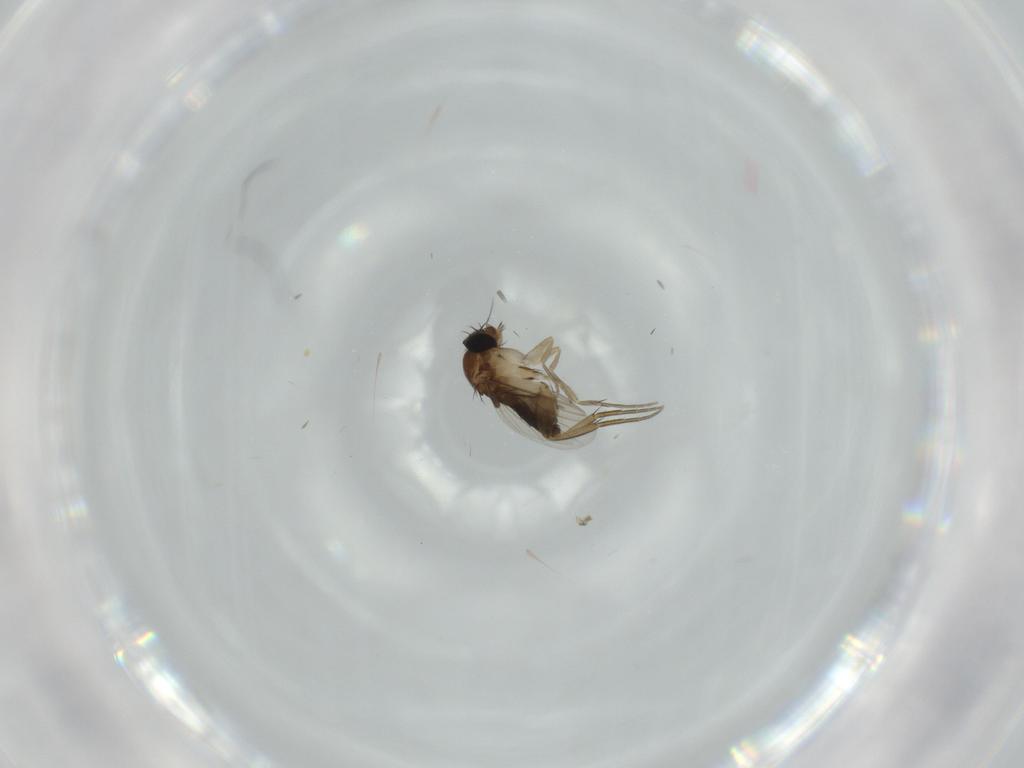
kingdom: Animalia
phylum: Arthropoda
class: Insecta
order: Diptera
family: Phoridae
